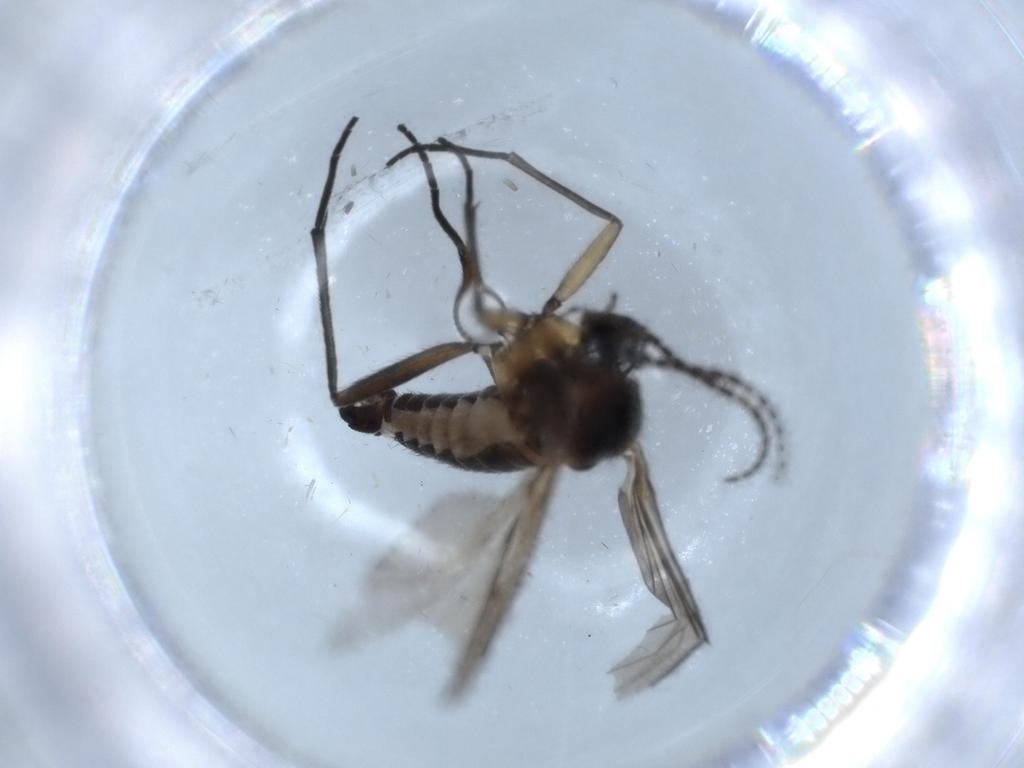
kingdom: Animalia
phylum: Arthropoda
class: Insecta
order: Diptera
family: Sciaridae
